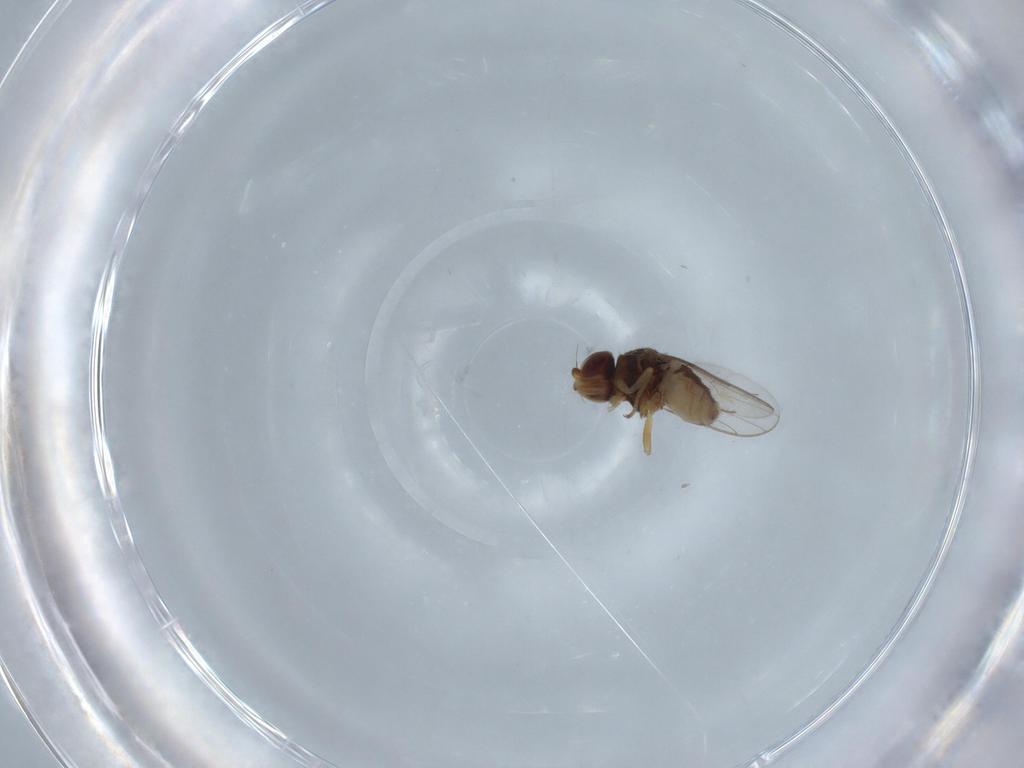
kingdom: Animalia
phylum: Arthropoda
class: Insecta
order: Diptera
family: Chloropidae
